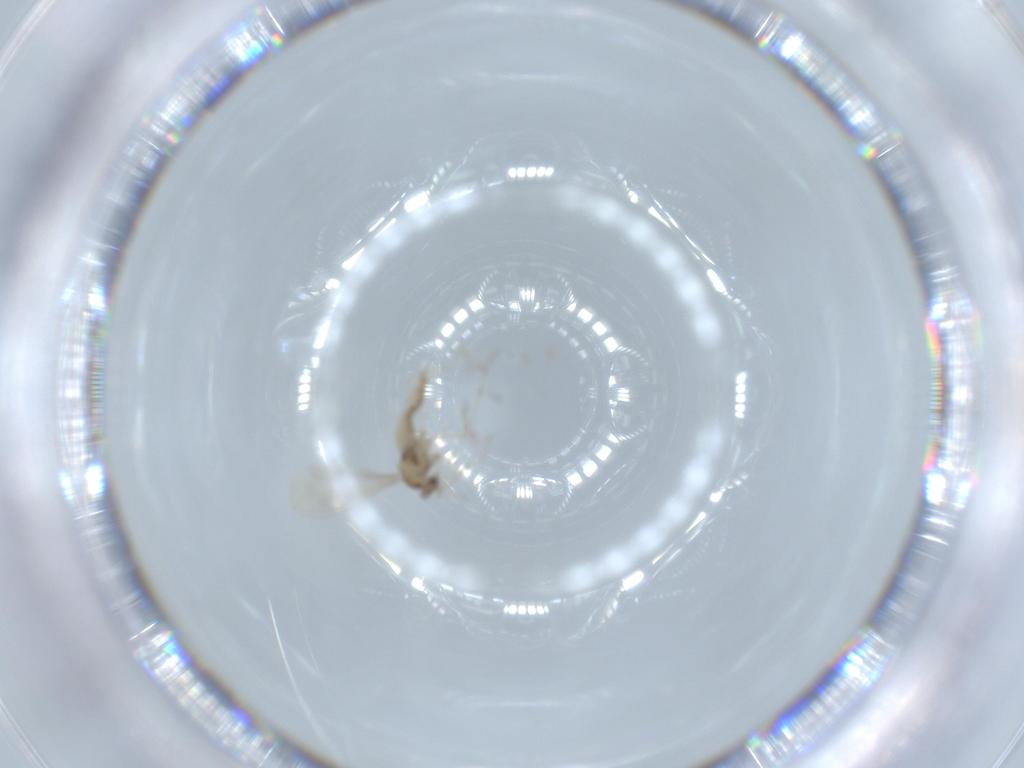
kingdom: Animalia
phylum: Arthropoda
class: Insecta
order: Diptera
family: Cecidomyiidae
